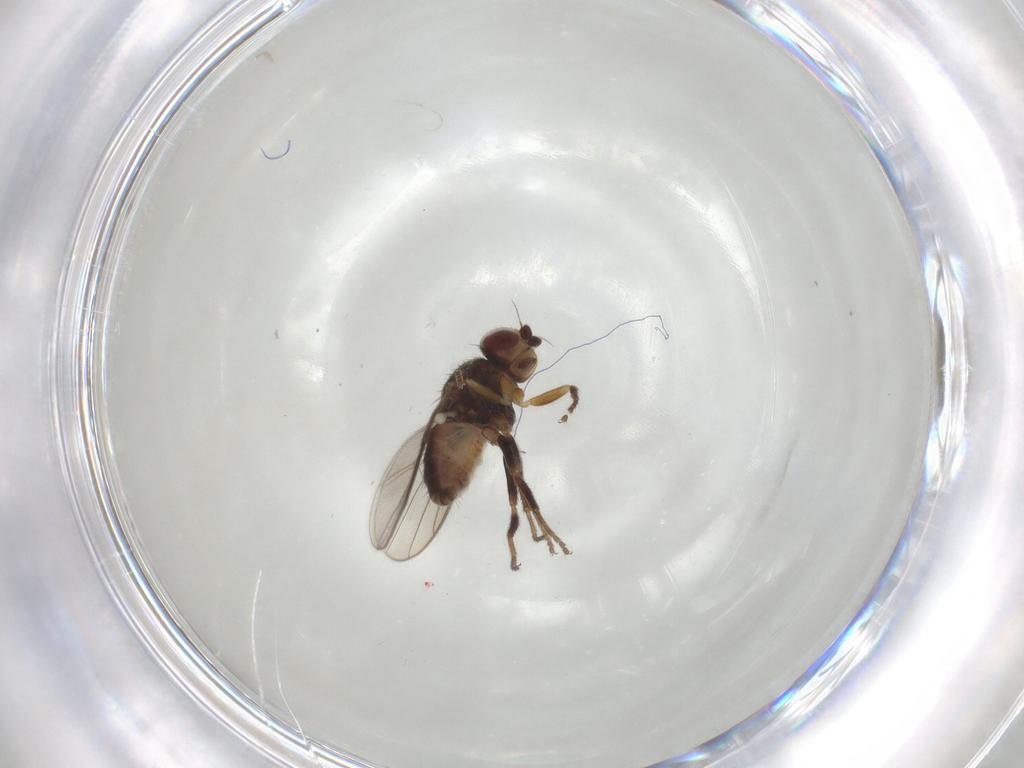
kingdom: Animalia
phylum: Arthropoda
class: Insecta
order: Diptera
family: Chloropidae
